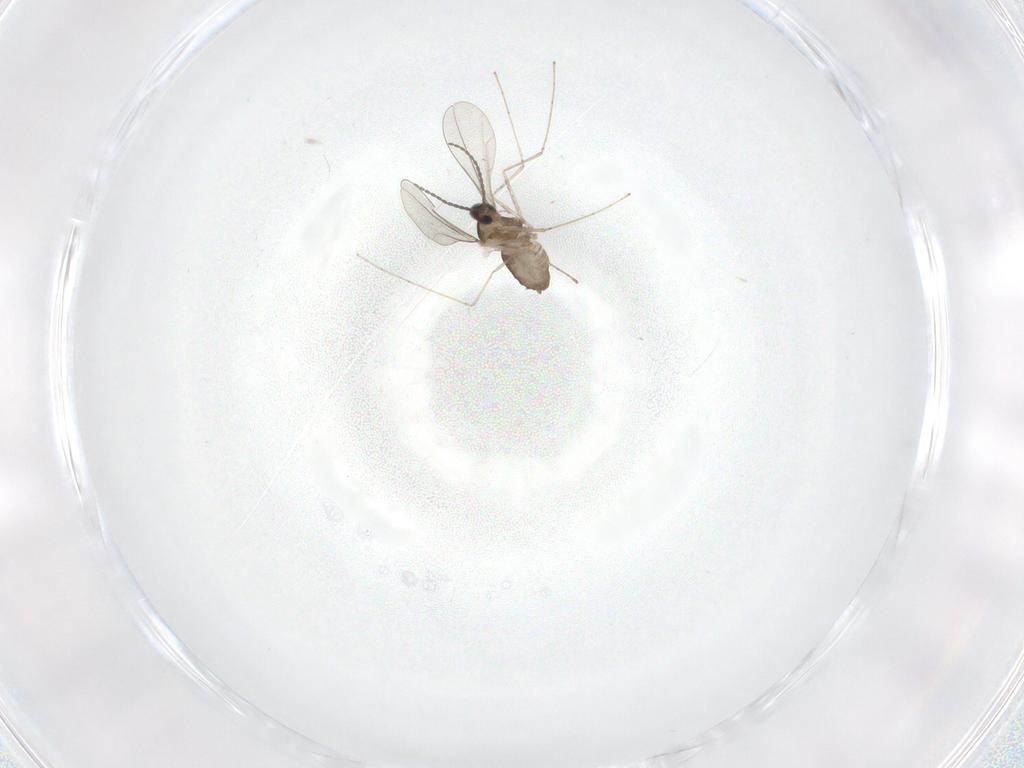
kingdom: Animalia
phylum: Arthropoda
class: Insecta
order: Diptera
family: Cecidomyiidae
